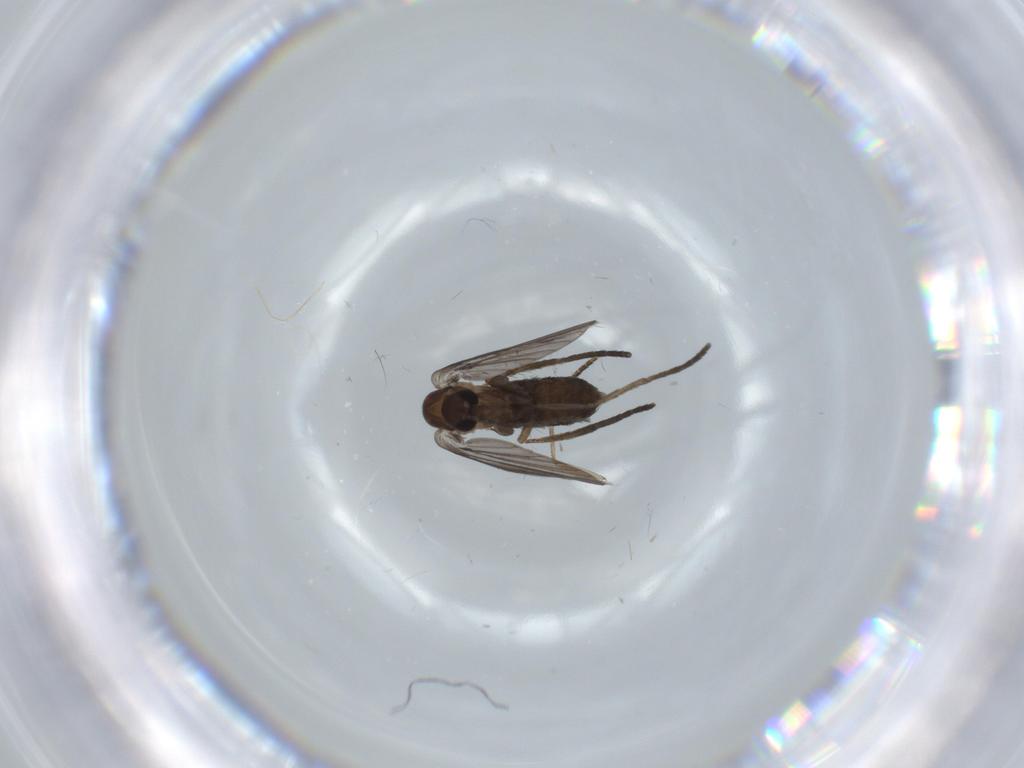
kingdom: Animalia
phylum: Arthropoda
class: Insecta
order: Diptera
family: Psychodidae
